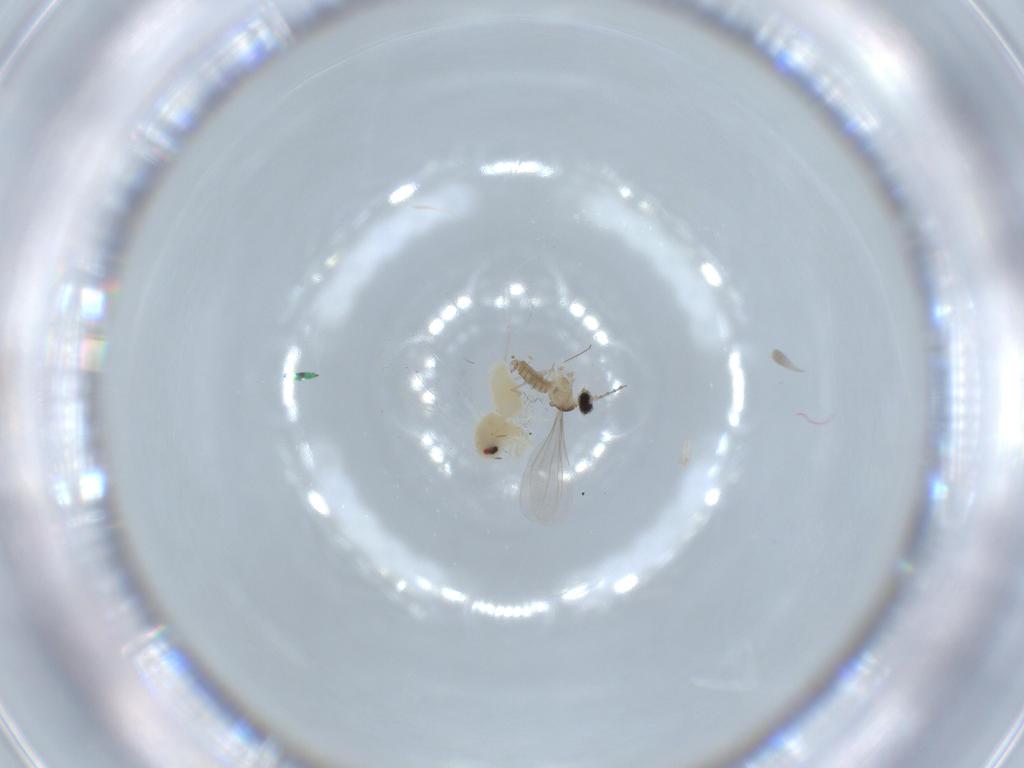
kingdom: Animalia
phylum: Arthropoda
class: Insecta
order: Diptera
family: Cecidomyiidae
